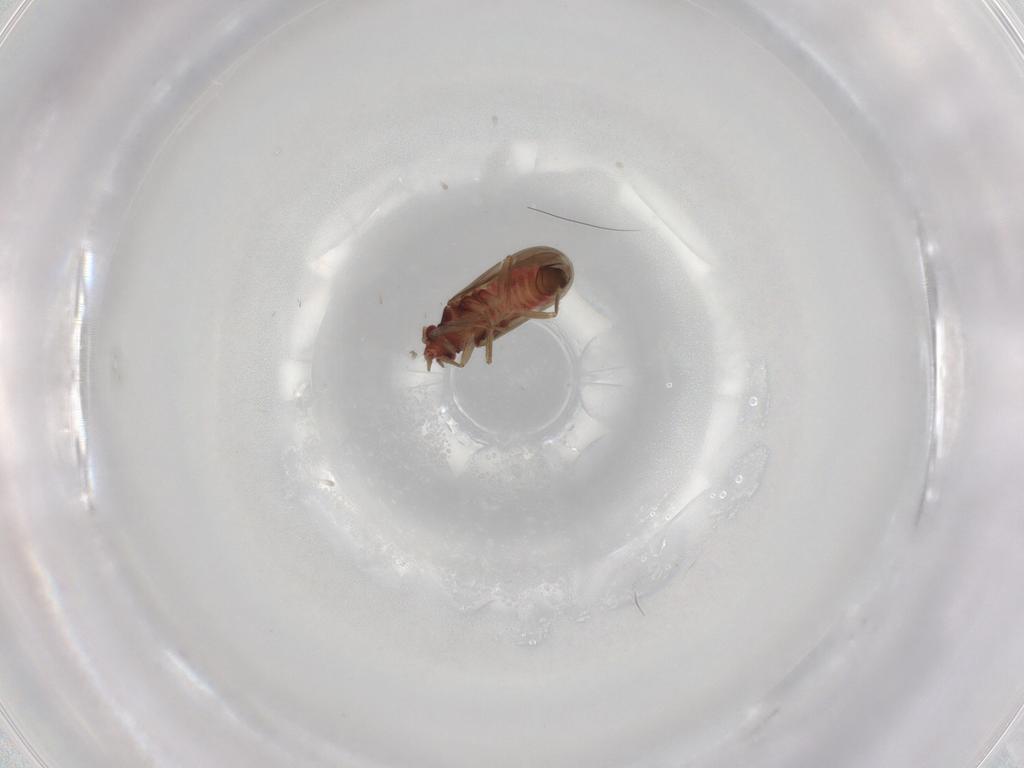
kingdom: Animalia
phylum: Arthropoda
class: Insecta
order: Hemiptera
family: Ceratocombidae
